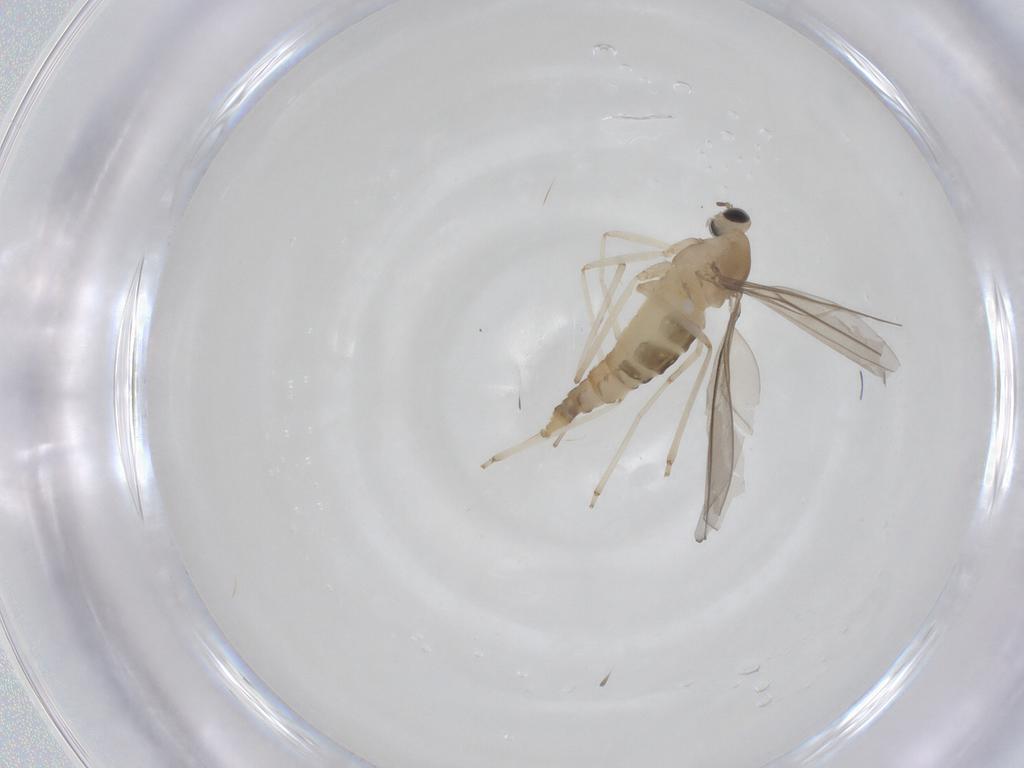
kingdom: Animalia
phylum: Arthropoda
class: Insecta
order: Diptera
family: Cecidomyiidae
